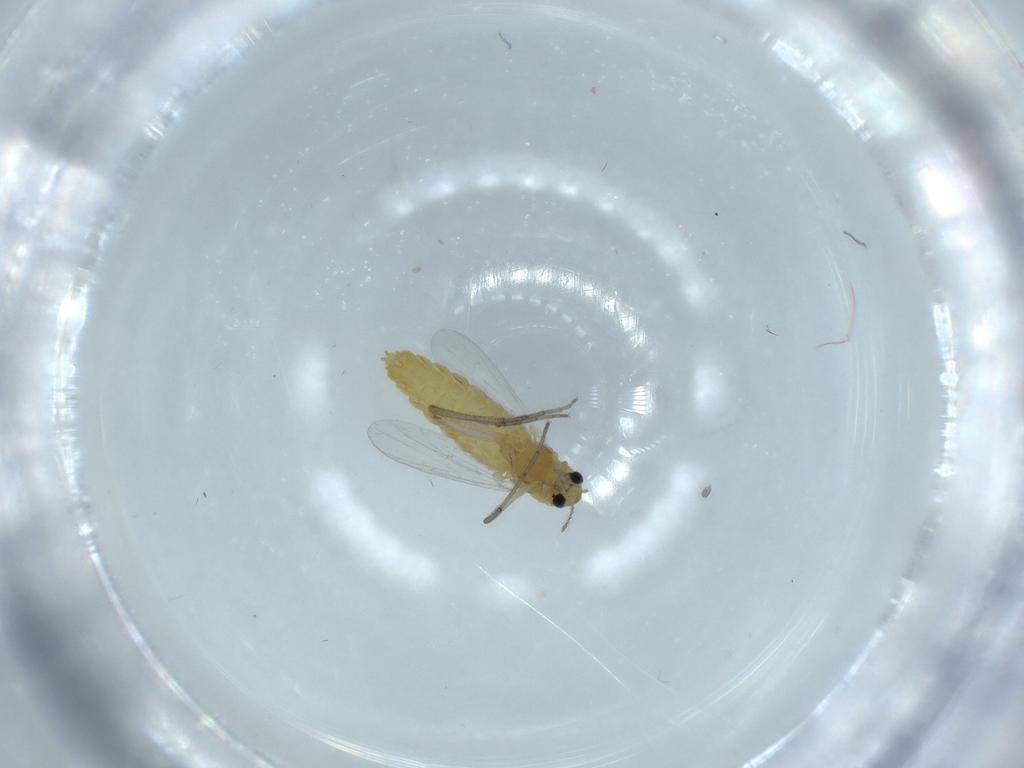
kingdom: Animalia
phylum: Arthropoda
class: Insecta
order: Diptera
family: Chironomidae
